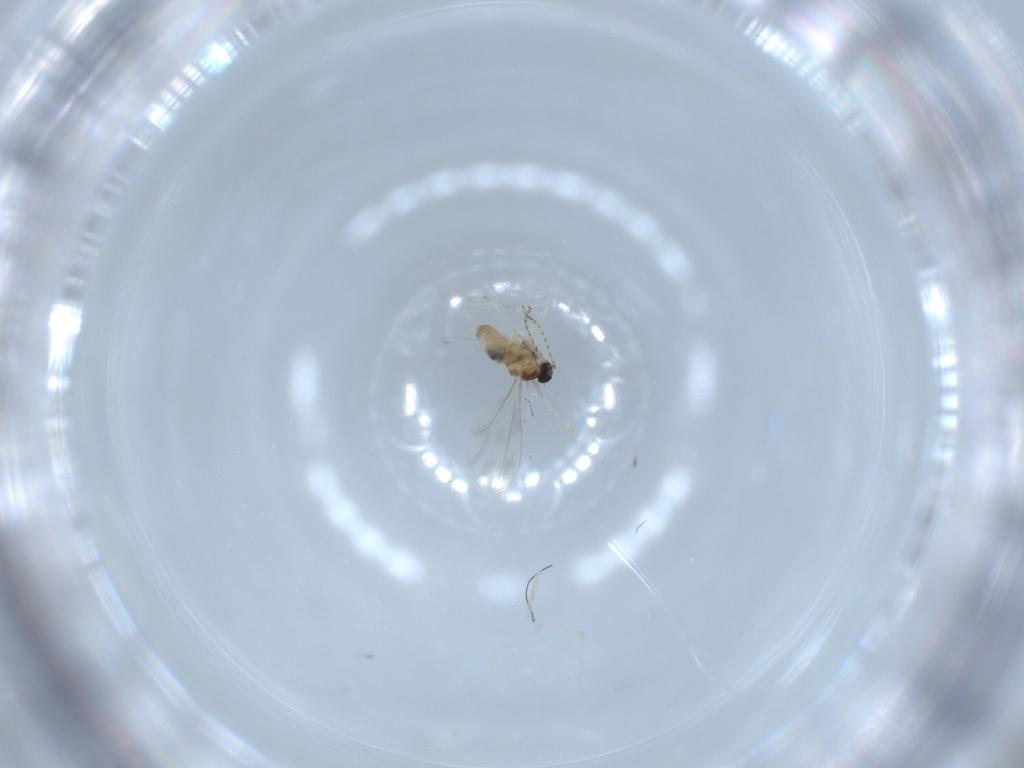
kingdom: Animalia
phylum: Arthropoda
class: Insecta
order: Diptera
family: Cecidomyiidae
